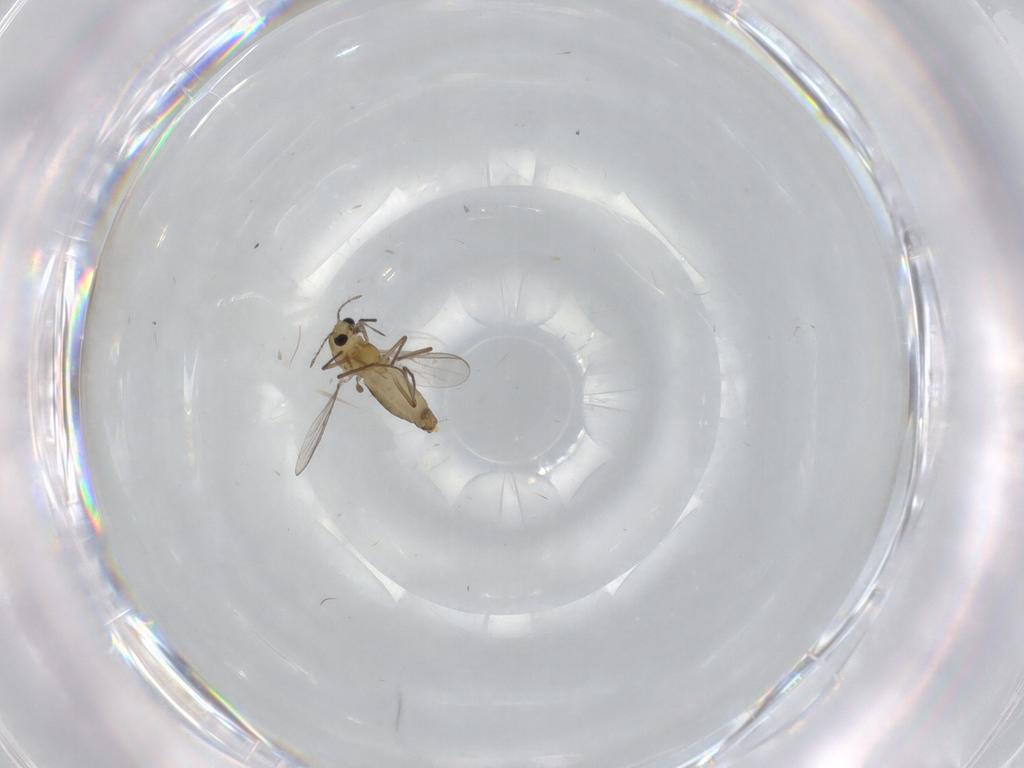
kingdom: Animalia
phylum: Arthropoda
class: Insecta
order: Diptera
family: Chironomidae
